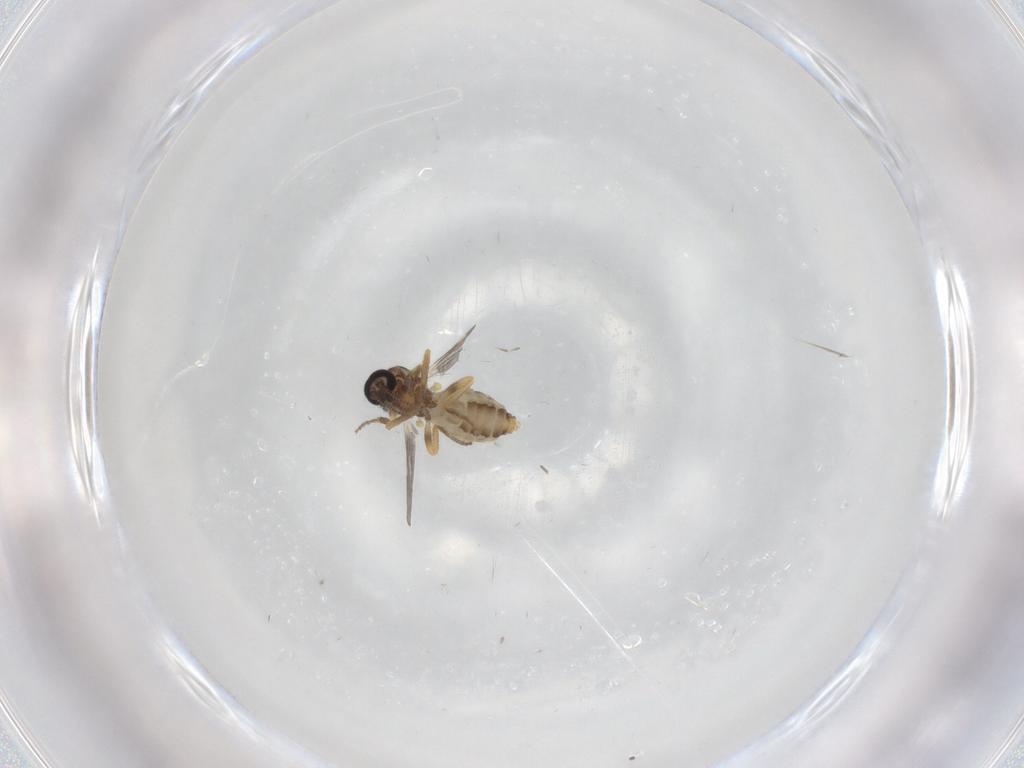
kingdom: Animalia
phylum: Arthropoda
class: Insecta
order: Diptera
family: Ceratopogonidae
